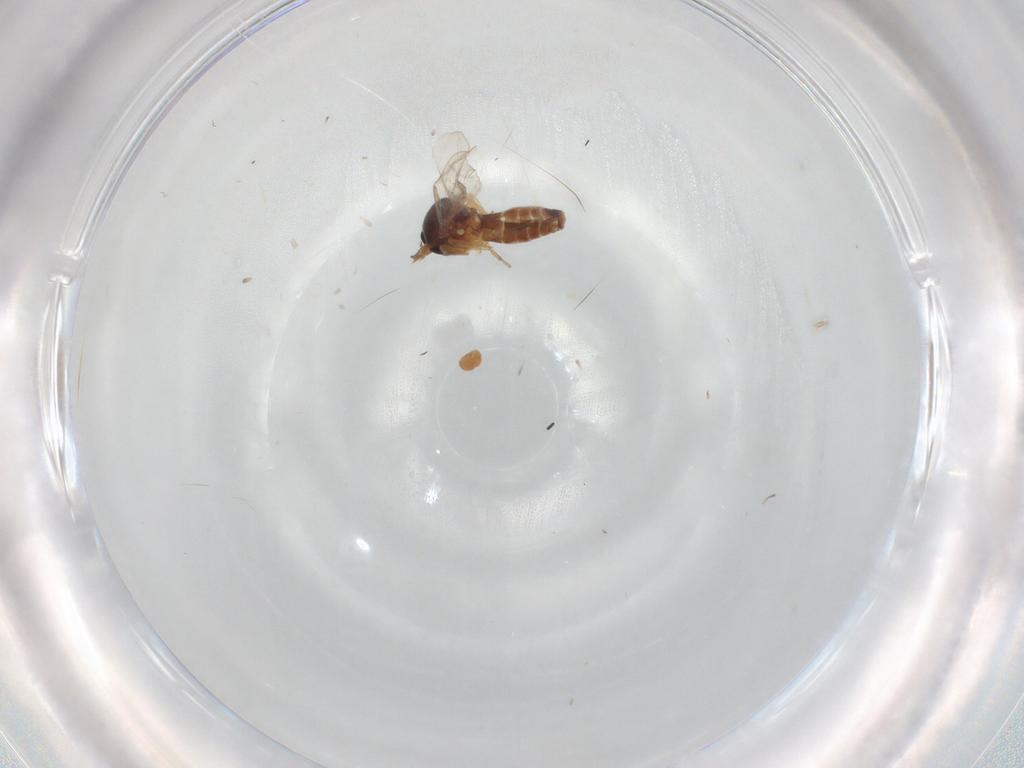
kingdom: Animalia
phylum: Arthropoda
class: Insecta
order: Diptera
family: Ceratopogonidae
